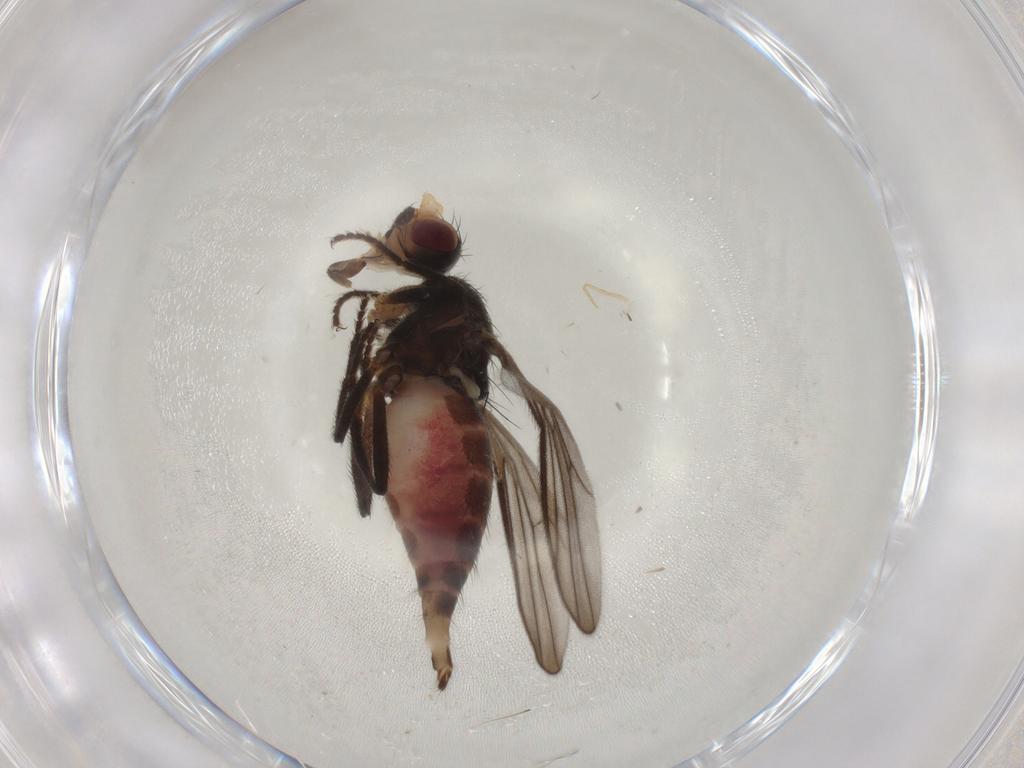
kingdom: Animalia
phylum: Arthropoda
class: Insecta
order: Diptera
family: Chloropidae
